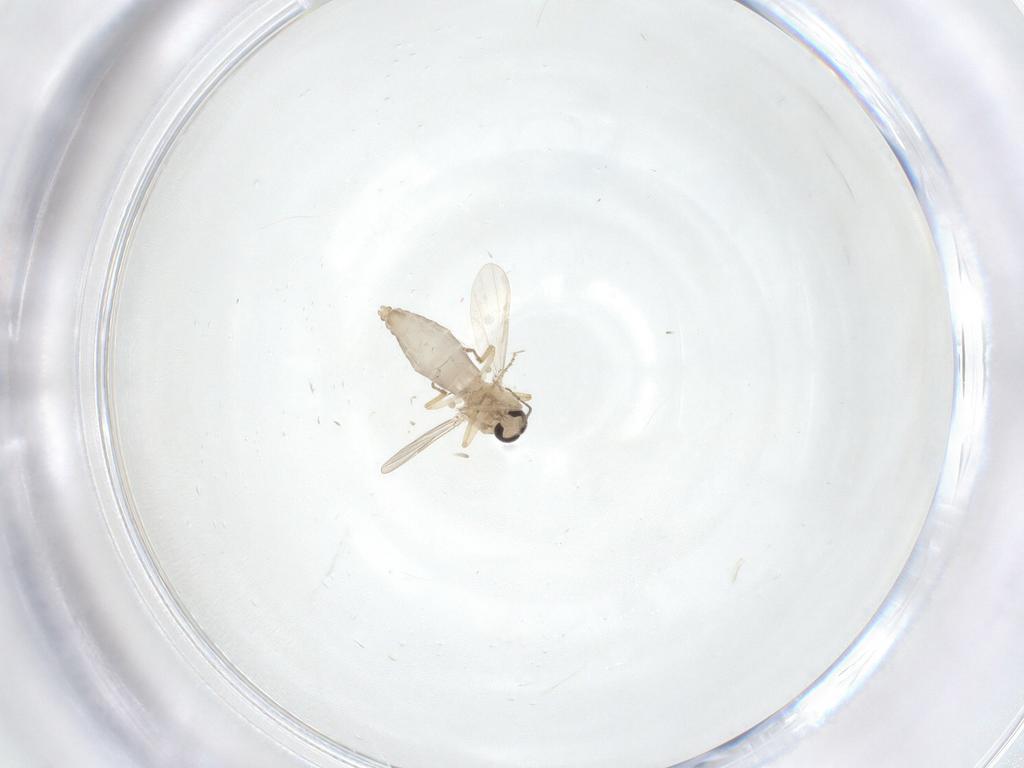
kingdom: Animalia
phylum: Arthropoda
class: Insecta
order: Diptera
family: Ceratopogonidae
